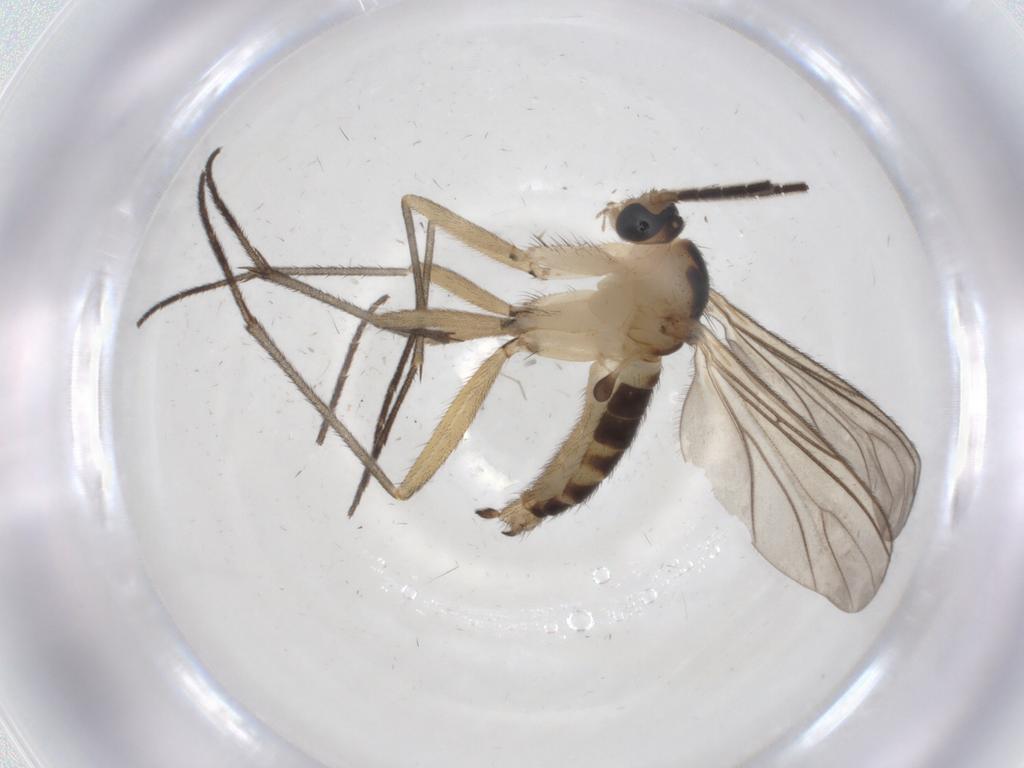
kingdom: Animalia
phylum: Arthropoda
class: Insecta
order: Diptera
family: Sciaridae
